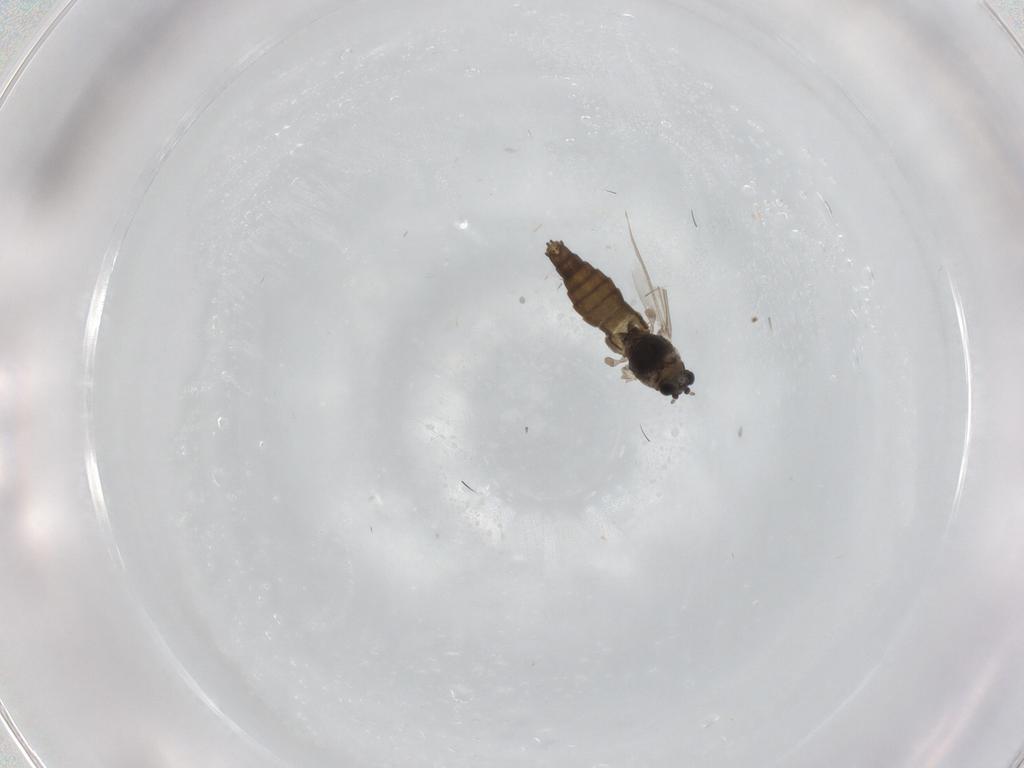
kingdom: Animalia
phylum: Arthropoda
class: Insecta
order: Diptera
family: Chironomidae
